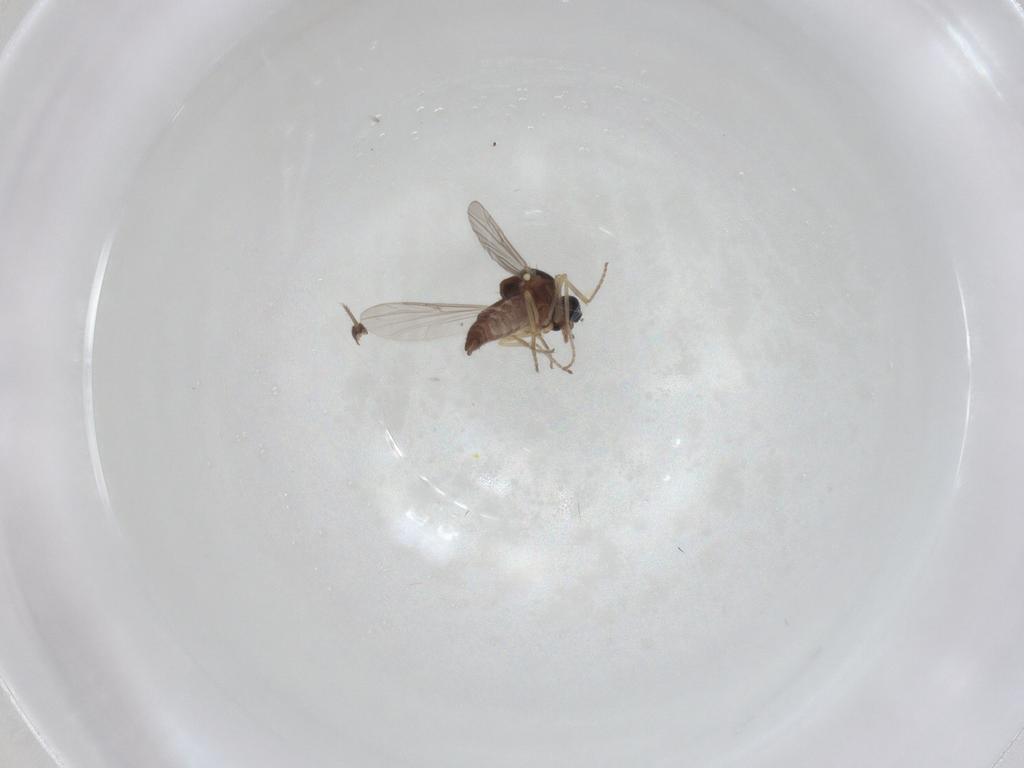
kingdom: Animalia
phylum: Arthropoda
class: Insecta
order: Diptera
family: Ceratopogonidae
